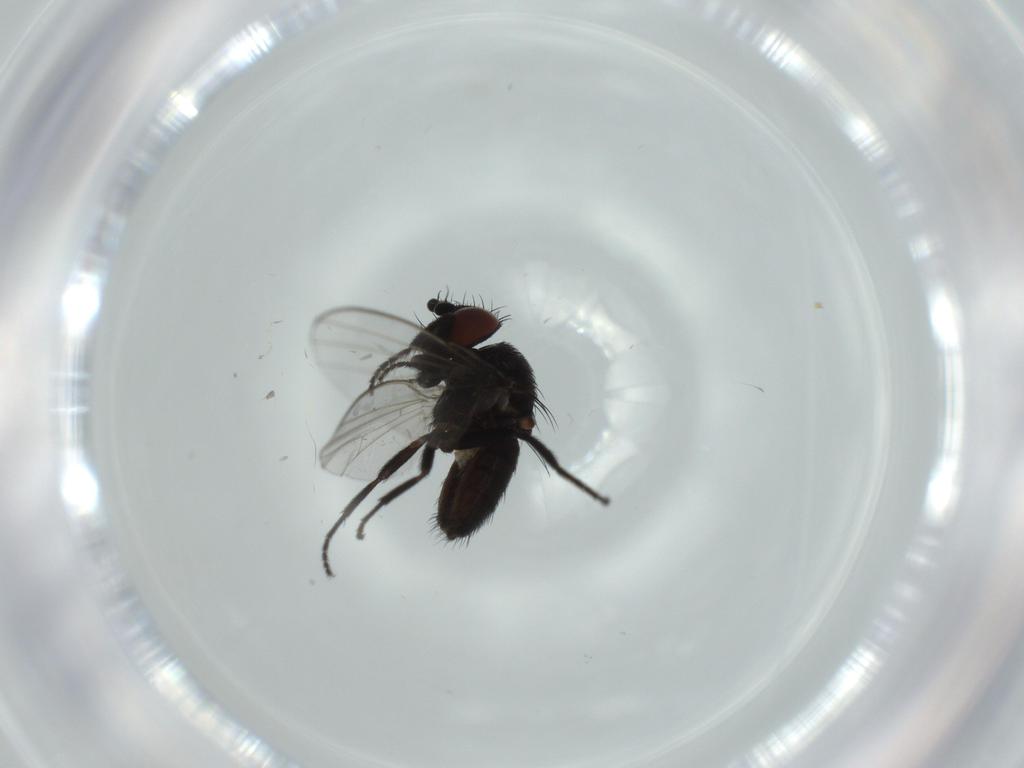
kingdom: Animalia
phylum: Arthropoda
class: Insecta
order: Diptera
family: Milichiidae
